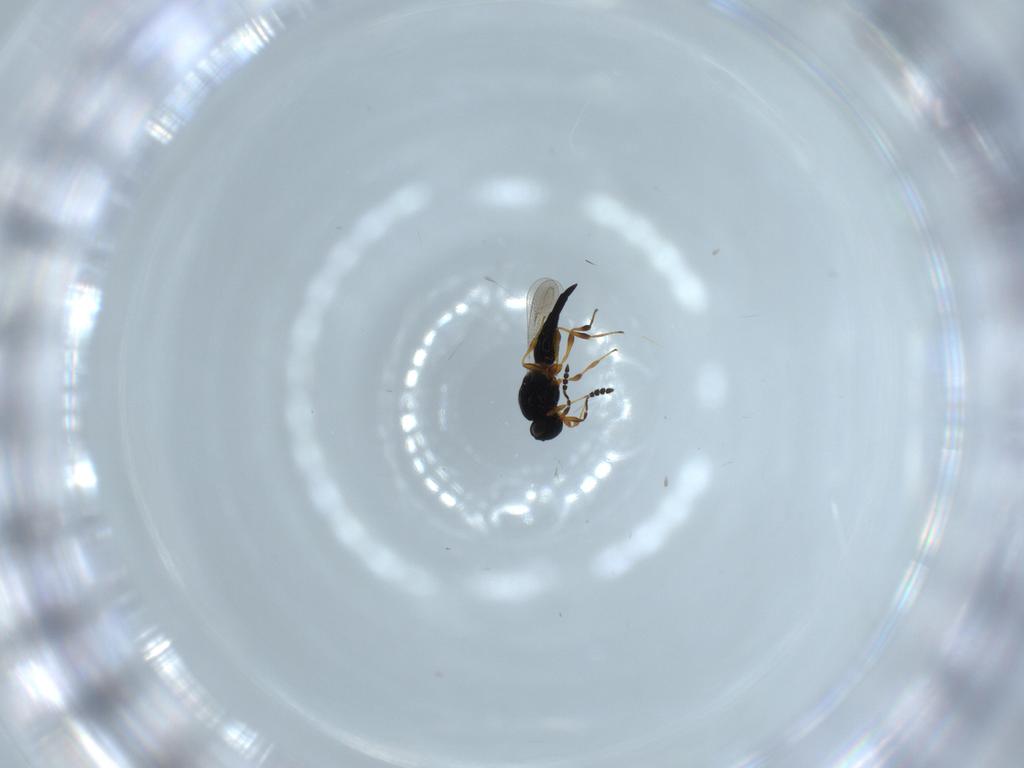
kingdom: Animalia
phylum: Arthropoda
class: Insecta
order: Hymenoptera
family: Platygastridae
